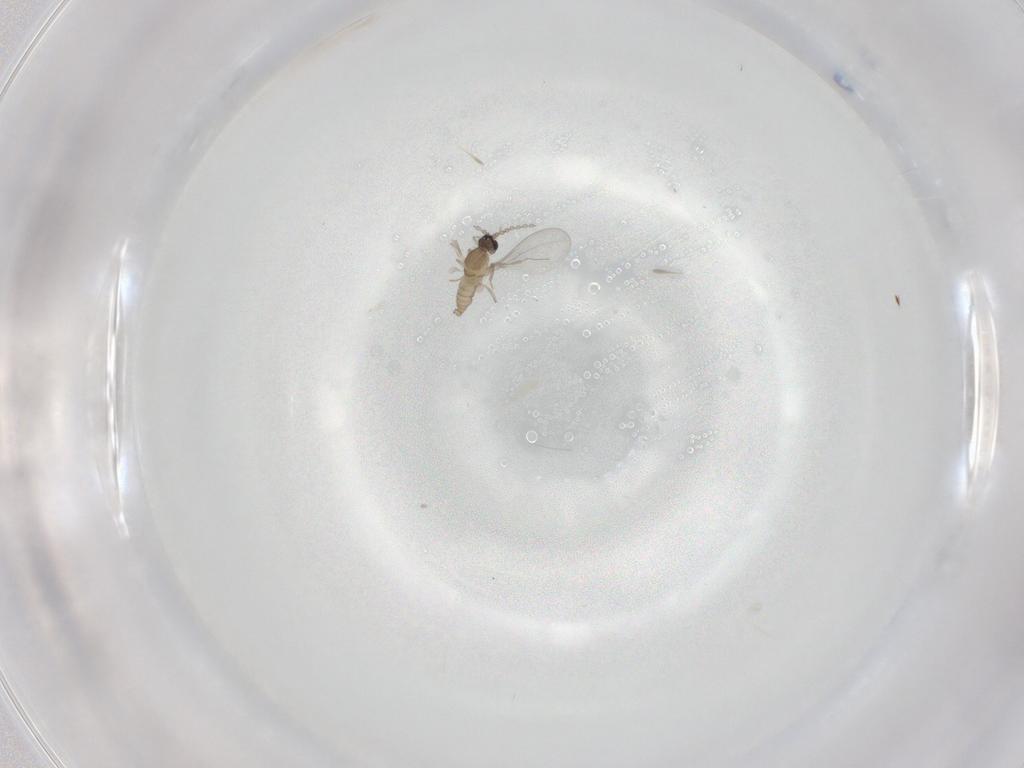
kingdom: Animalia
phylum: Arthropoda
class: Insecta
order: Diptera
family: Cecidomyiidae
